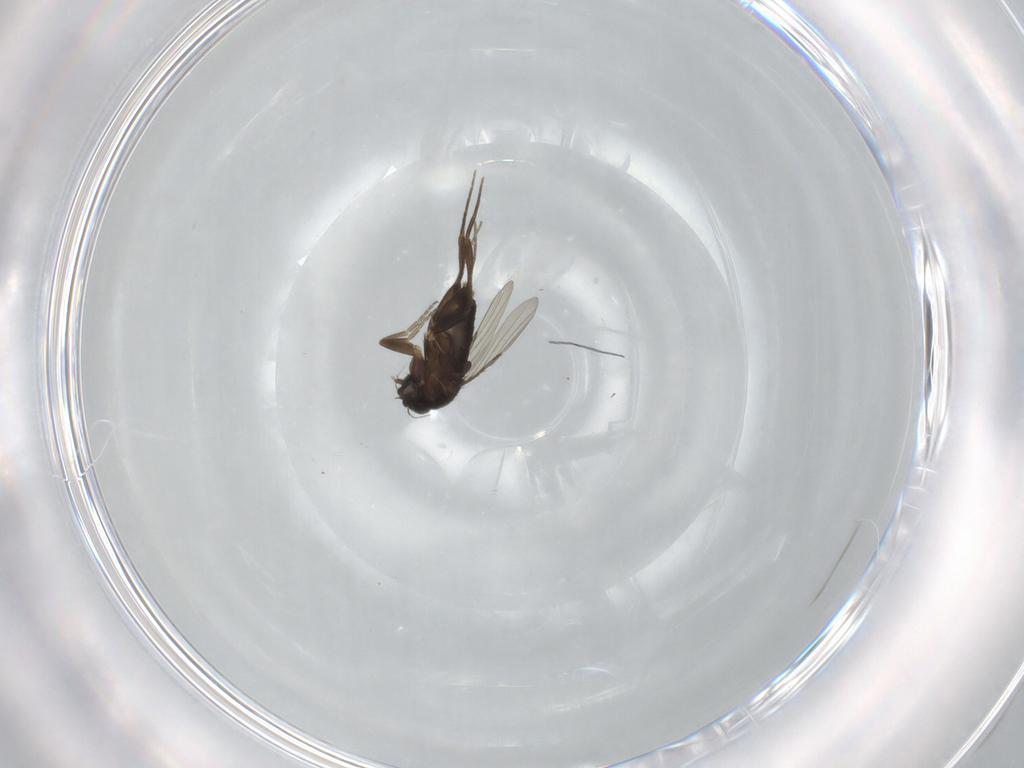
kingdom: Animalia
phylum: Arthropoda
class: Insecta
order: Diptera
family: Phoridae
